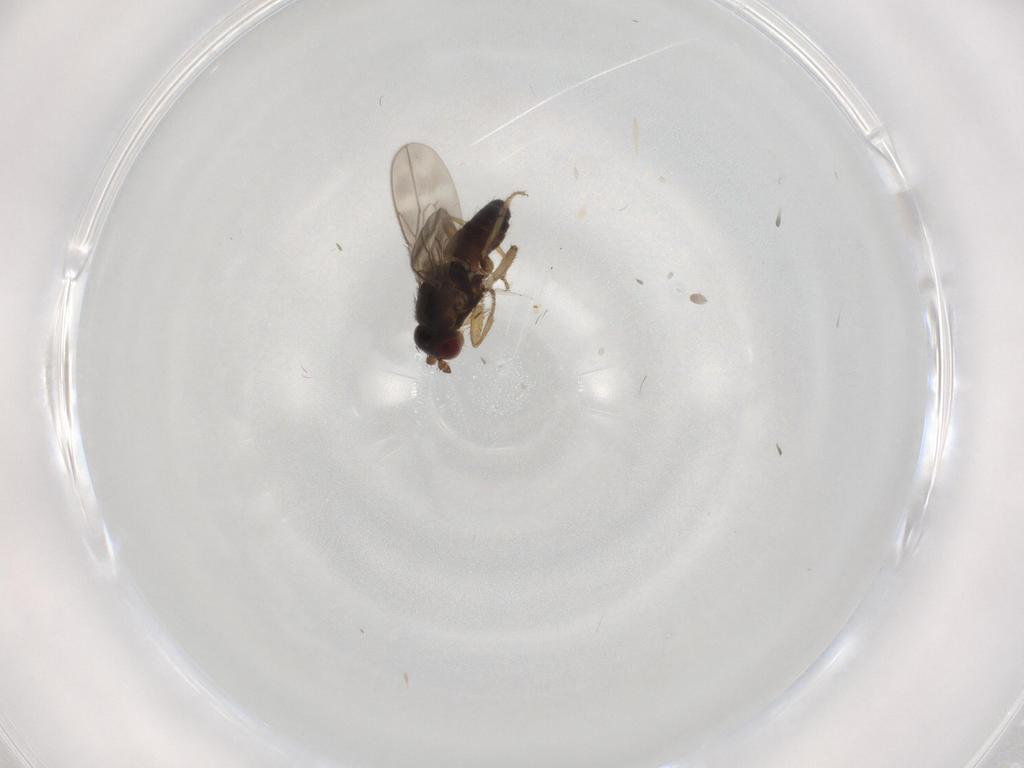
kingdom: Animalia
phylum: Arthropoda
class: Insecta
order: Diptera
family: Sphaeroceridae
